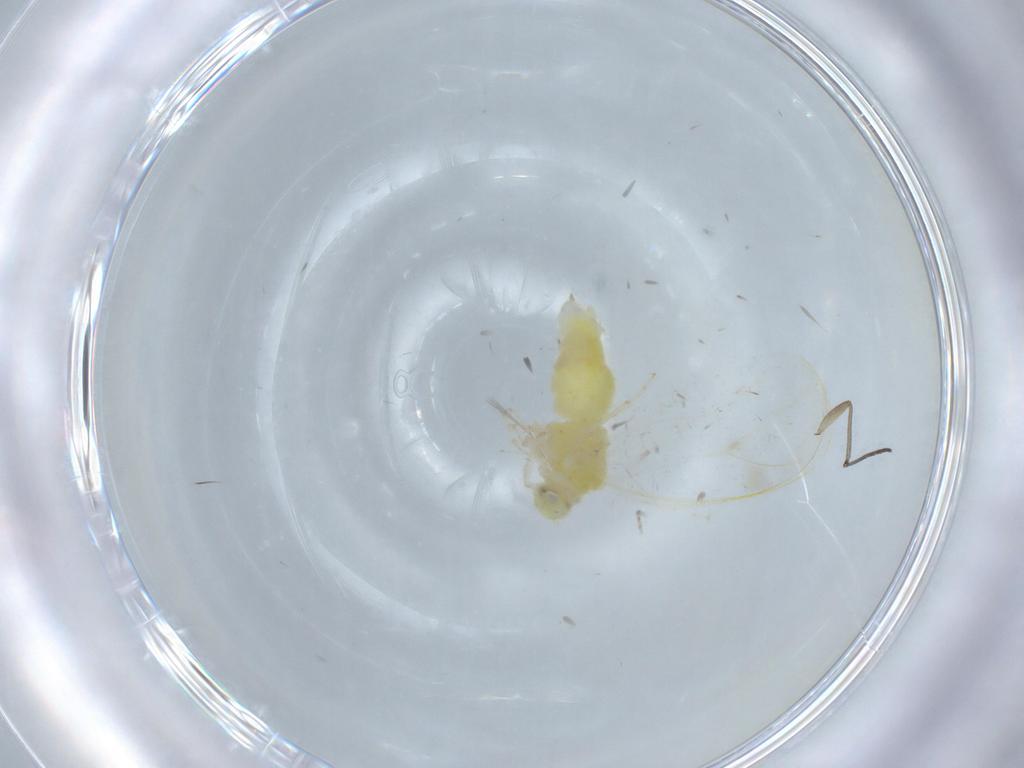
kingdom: Animalia
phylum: Arthropoda
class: Insecta
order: Hemiptera
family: Aleyrodidae
